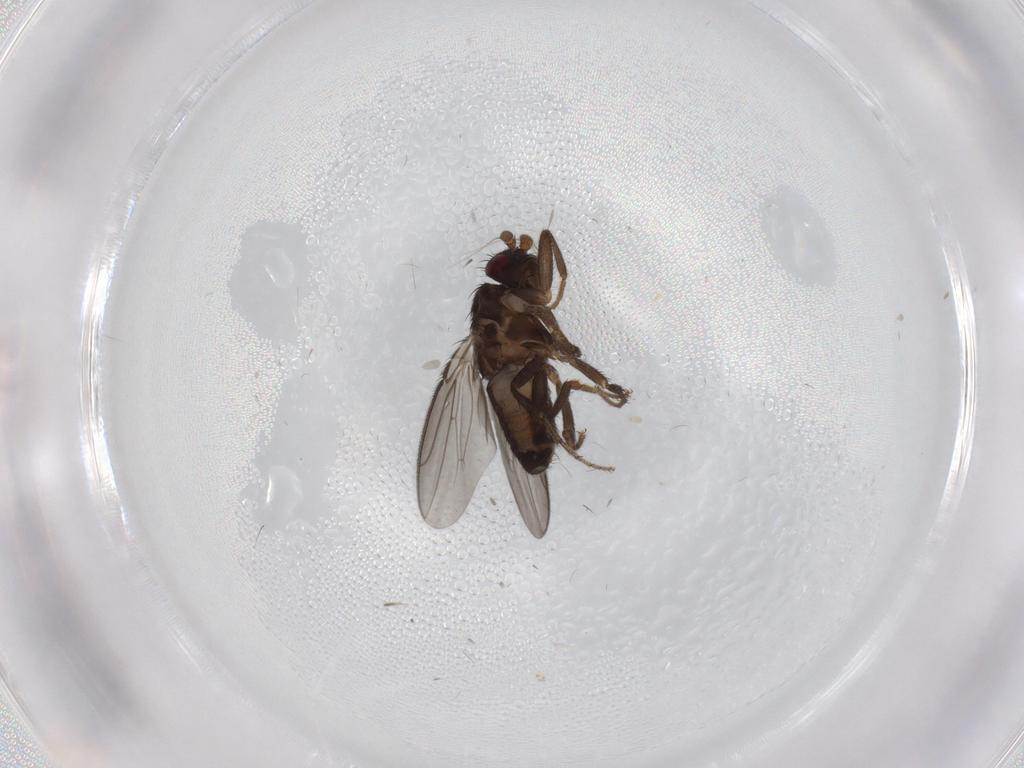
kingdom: Animalia
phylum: Arthropoda
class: Insecta
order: Diptera
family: Sphaeroceridae
